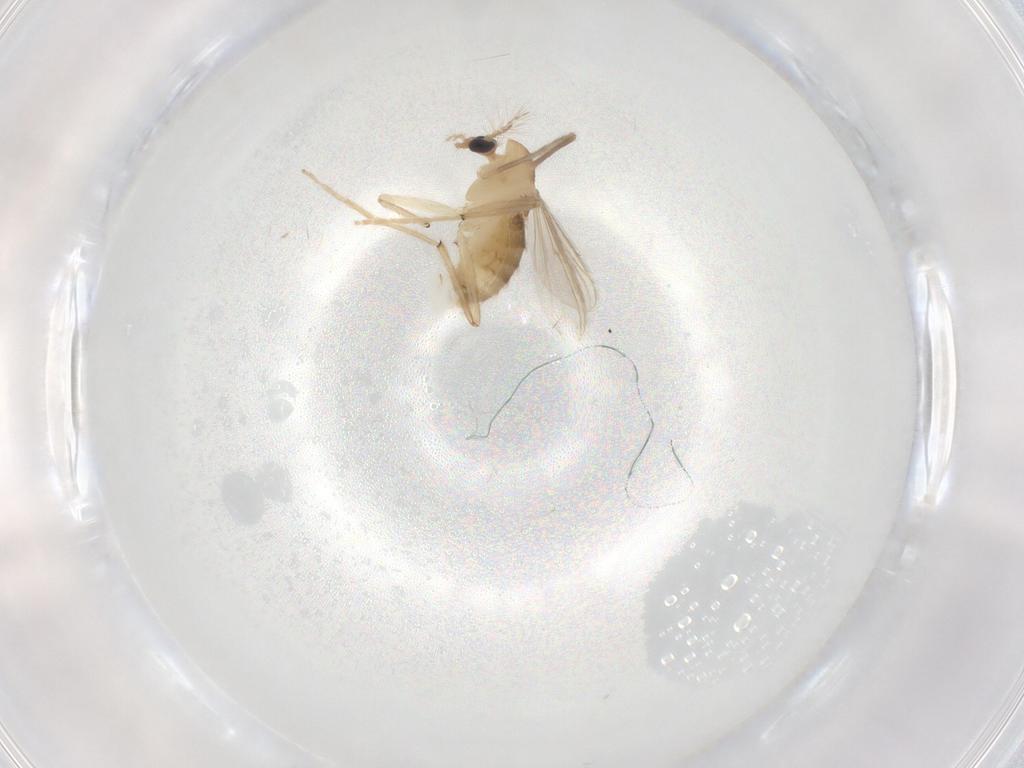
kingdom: Animalia
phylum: Arthropoda
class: Insecta
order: Diptera
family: Chironomidae
